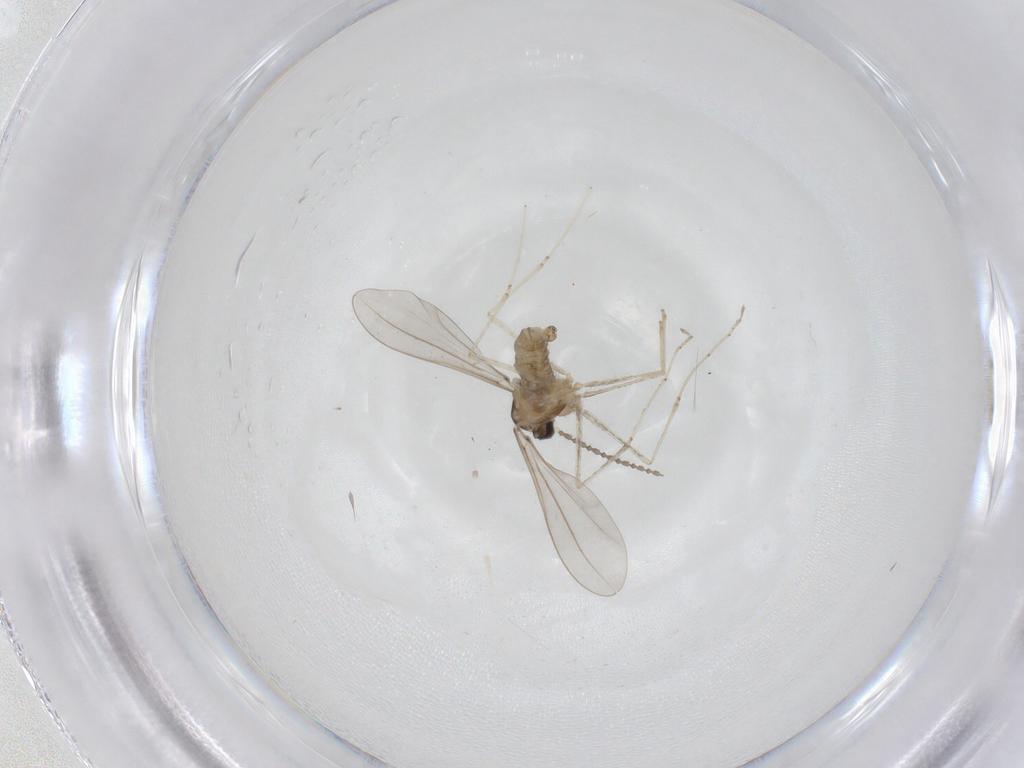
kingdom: Animalia
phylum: Arthropoda
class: Insecta
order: Diptera
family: Cecidomyiidae
